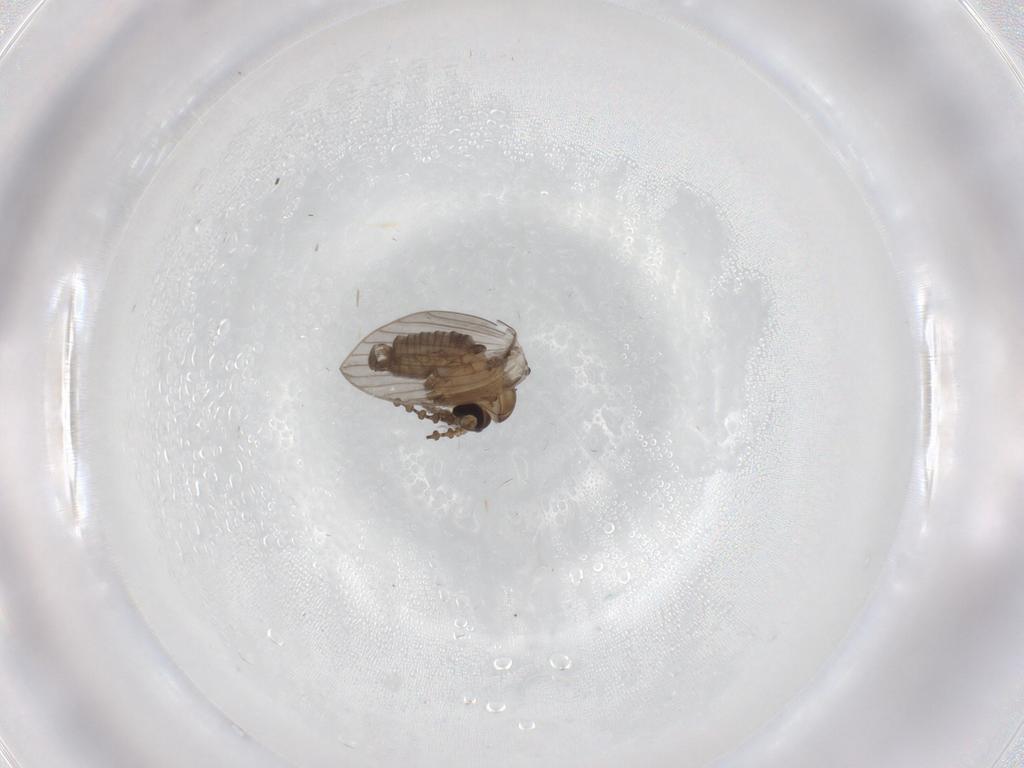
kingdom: Animalia
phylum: Arthropoda
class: Insecta
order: Diptera
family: Psychodidae
